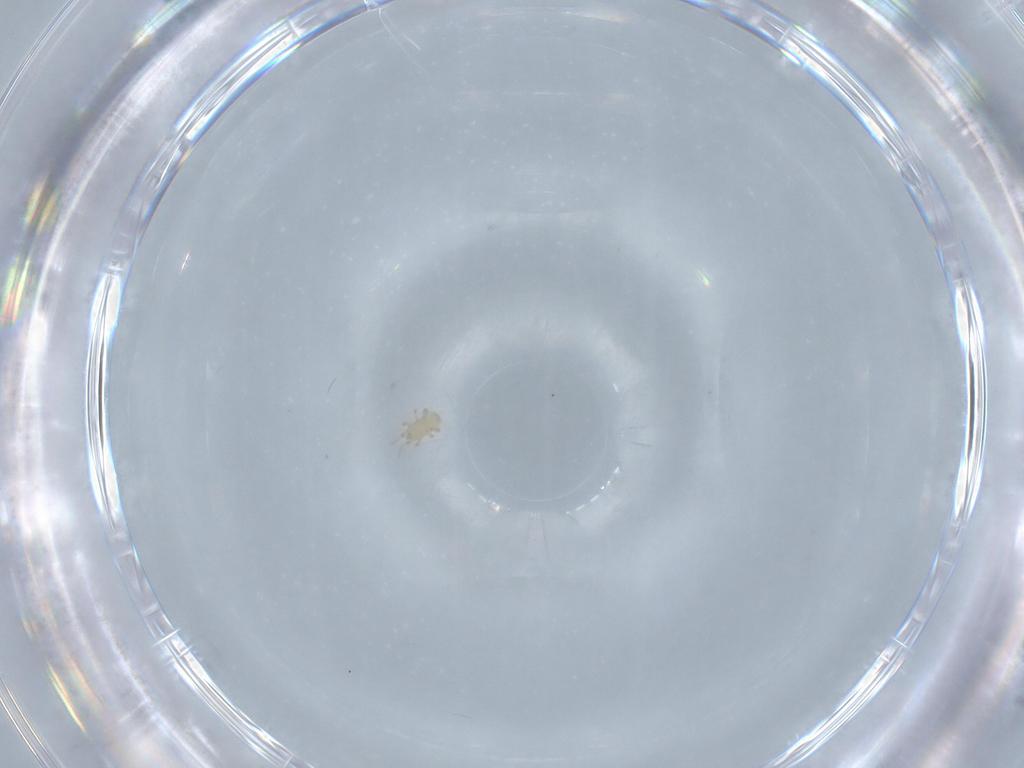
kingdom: Animalia
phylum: Arthropoda
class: Arachnida
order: Mesostigmata
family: Ascidae
